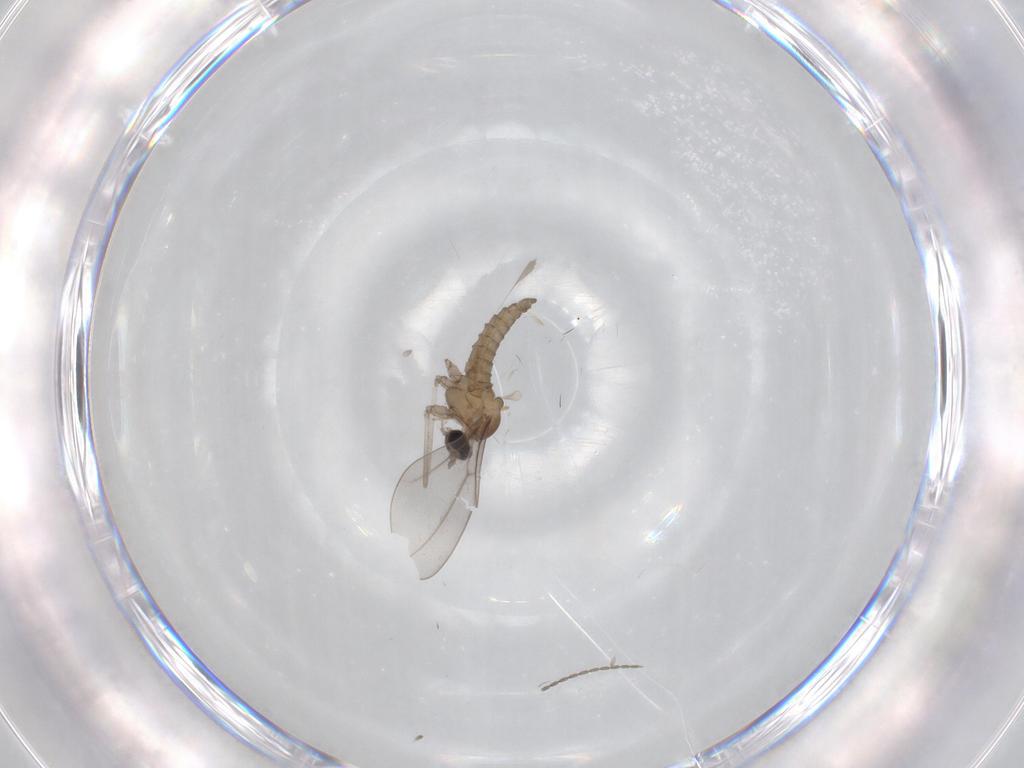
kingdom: Animalia
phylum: Arthropoda
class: Insecta
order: Diptera
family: Cecidomyiidae
